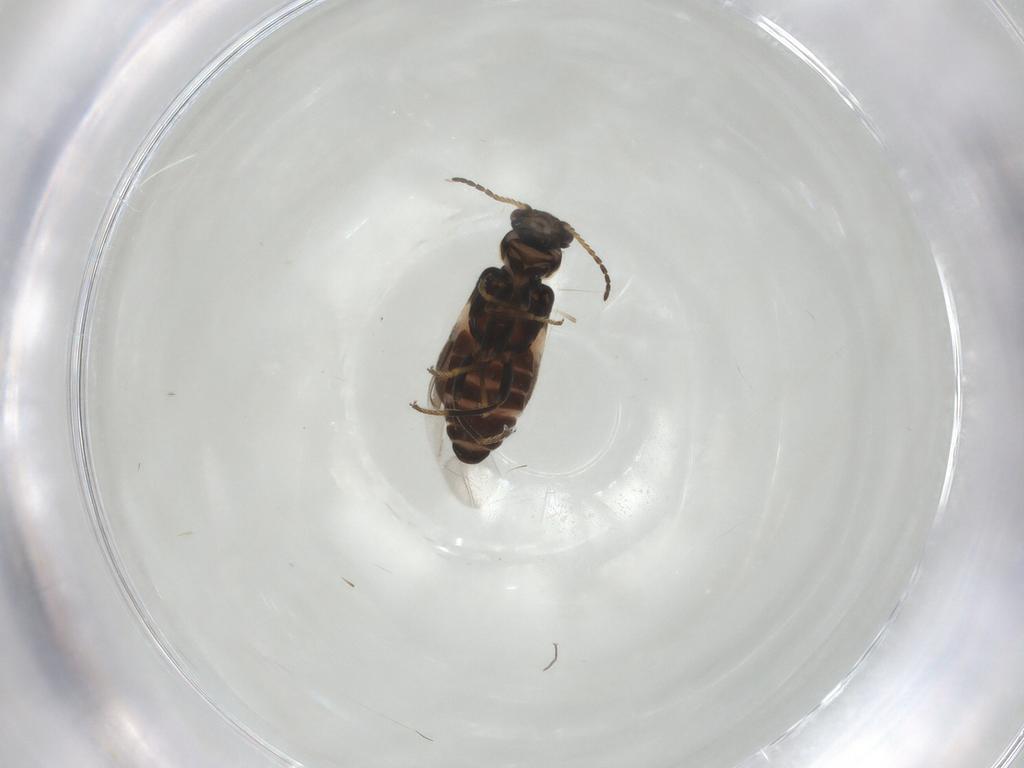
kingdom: Animalia
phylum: Arthropoda
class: Insecta
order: Coleoptera
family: Melyridae
